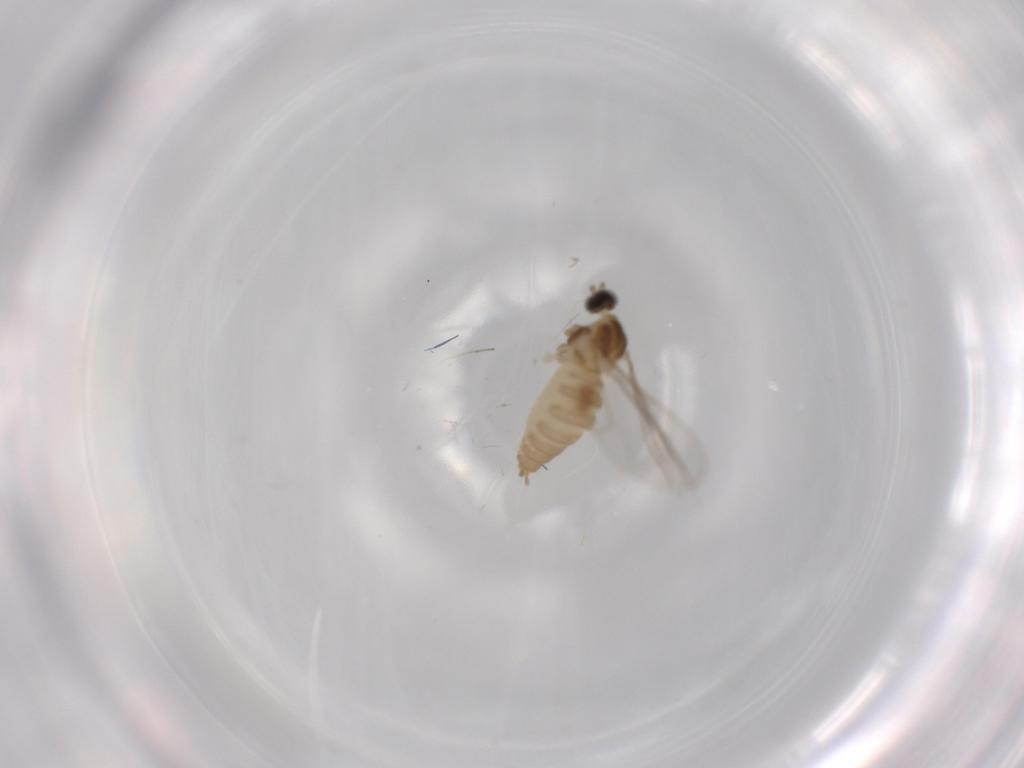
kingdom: Animalia
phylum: Arthropoda
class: Insecta
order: Diptera
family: Cecidomyiidae
